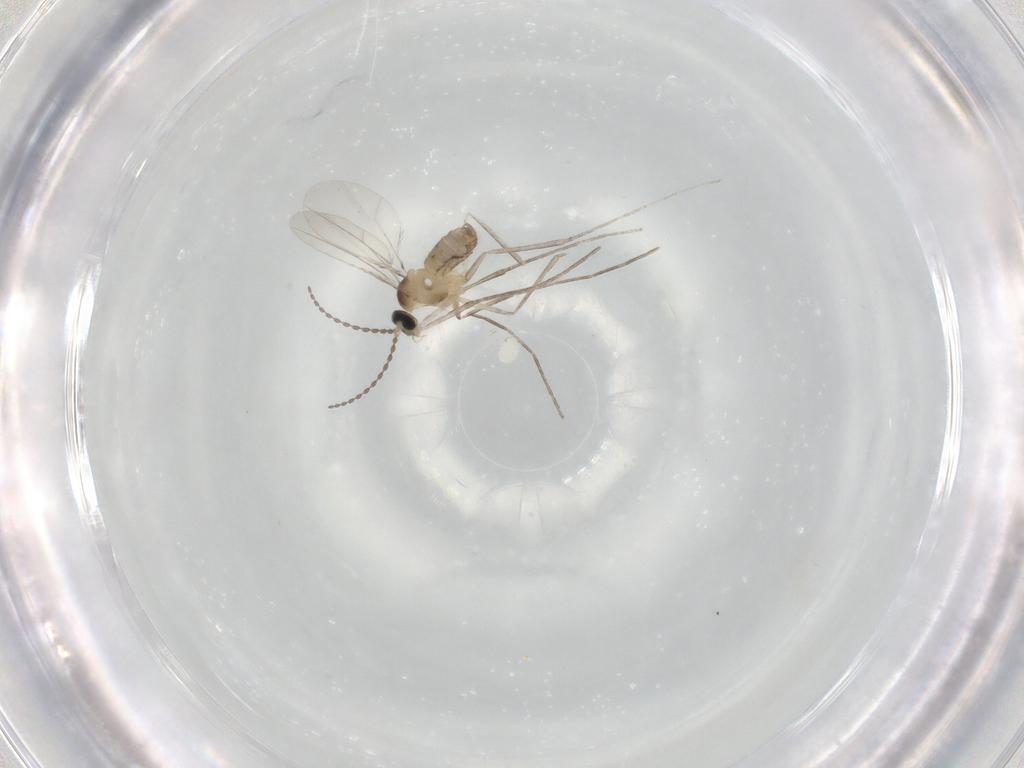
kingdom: Animalia
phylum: Arthropoda
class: Insecta
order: Diptera
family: Cecidomyiidae
